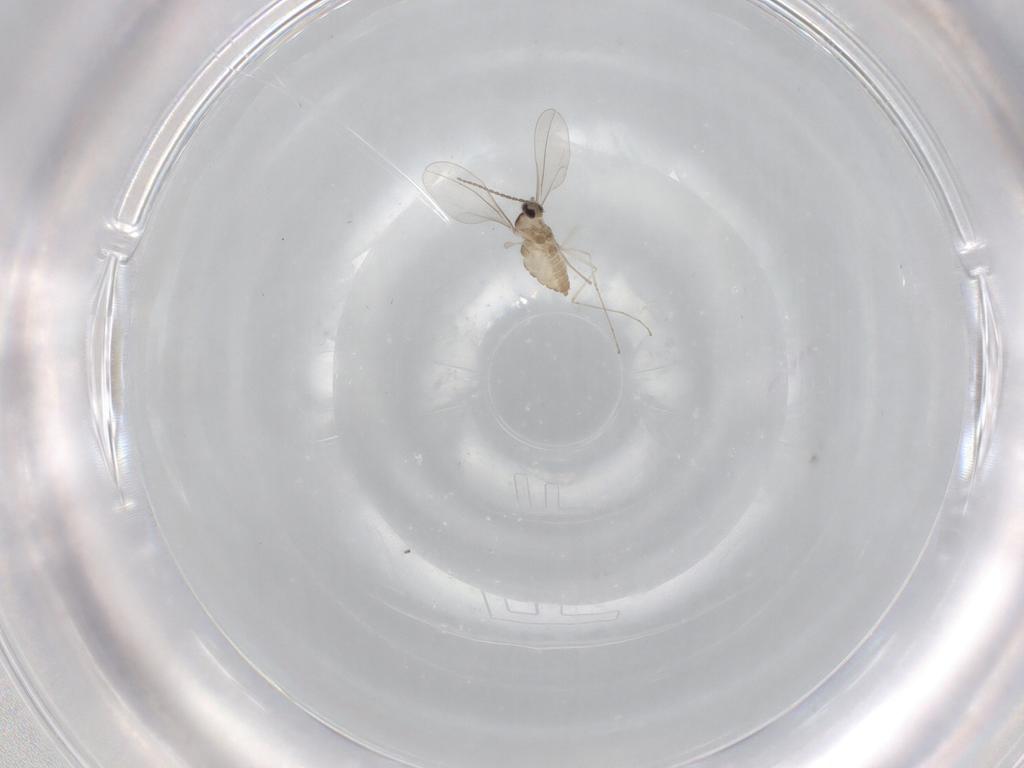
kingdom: Animalia
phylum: Arthropoda
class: Insecta
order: Diptera
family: Cecidomyiidae
